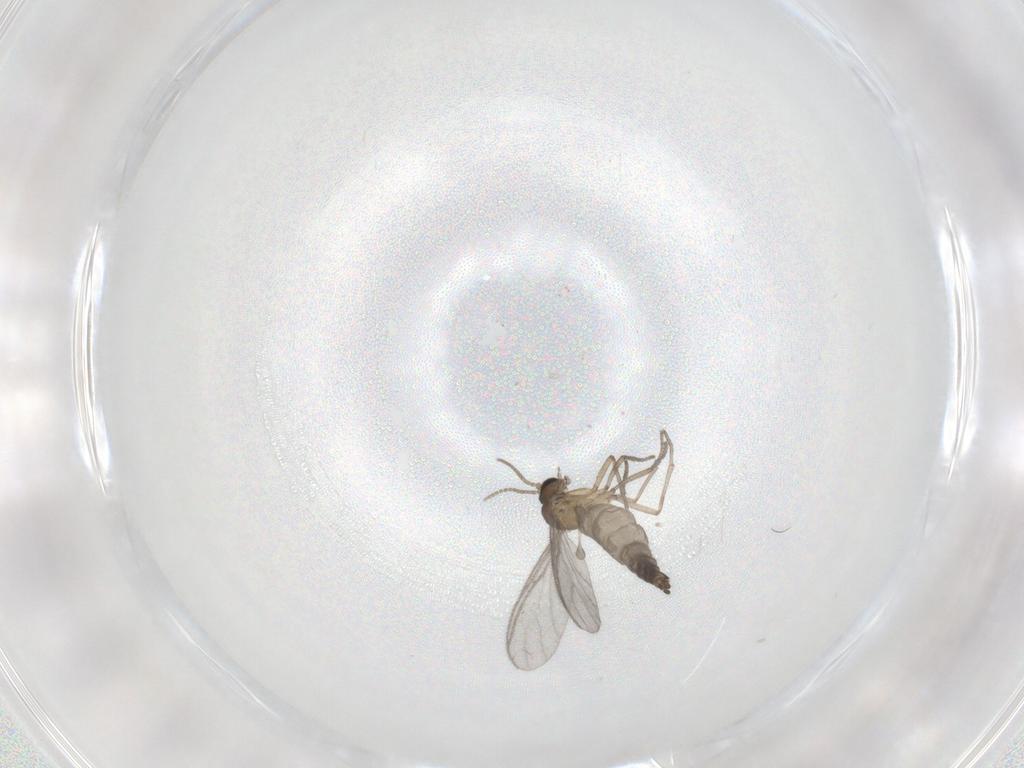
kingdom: Animalia
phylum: Arthropoda
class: Insecta
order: Diptera
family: Sciaridae
